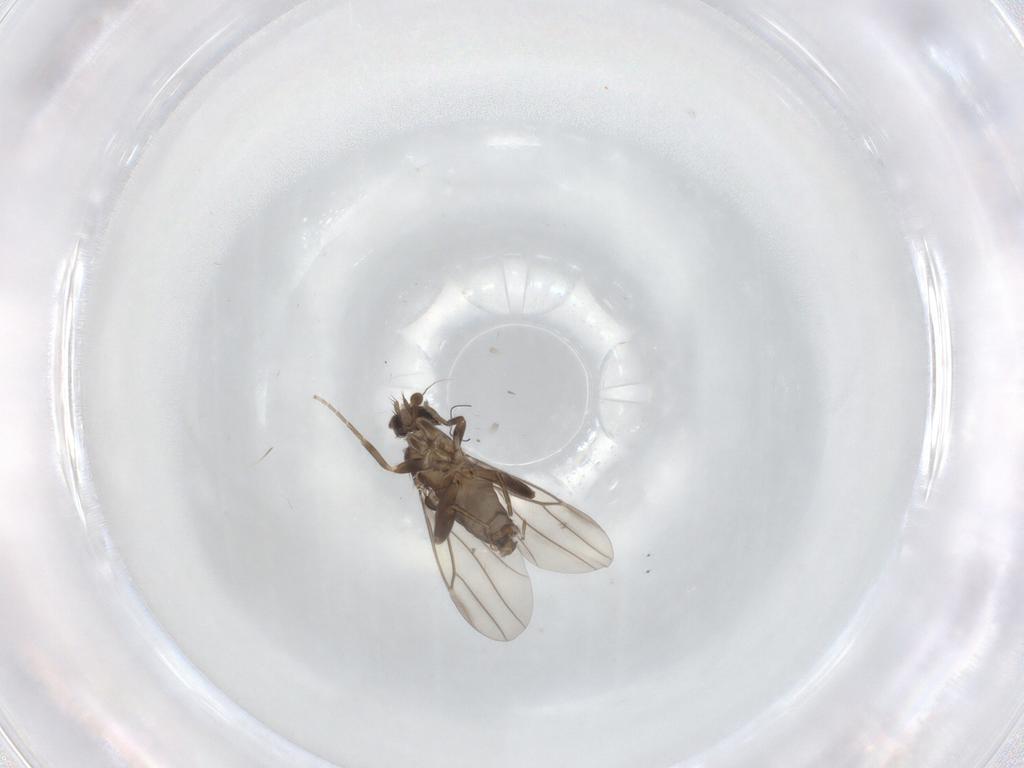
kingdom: Animalia
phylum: Arthropoda
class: Insecta
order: Diptera
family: Phoridae
